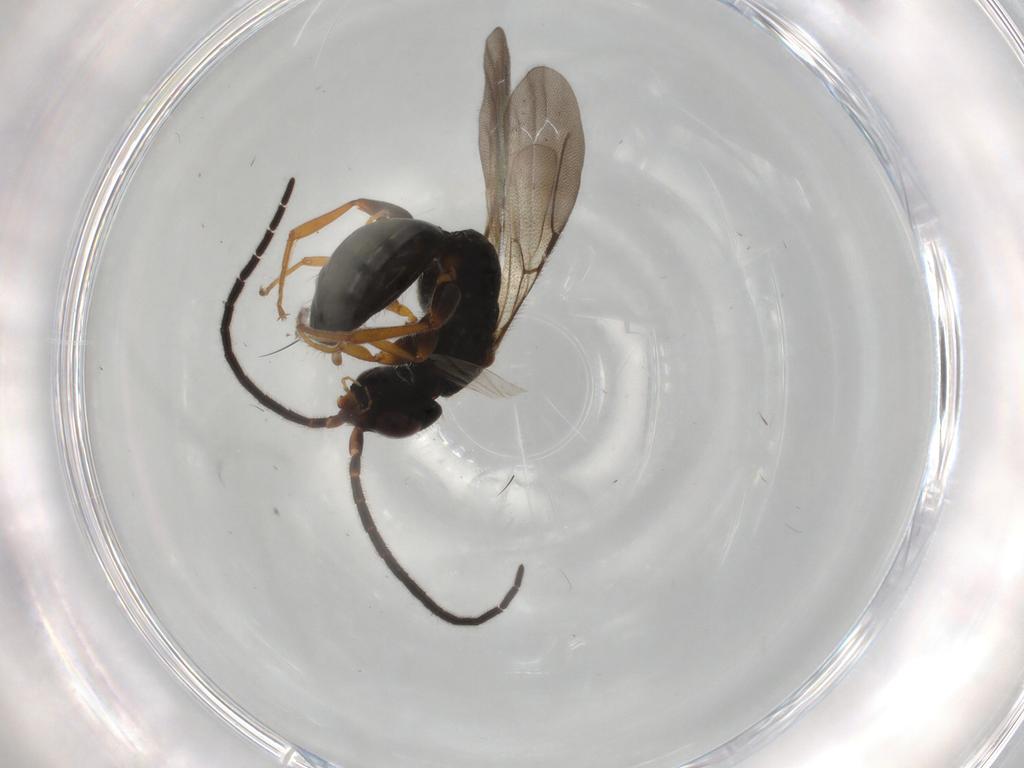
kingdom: Animalia
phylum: Arthropoda
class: Insecta
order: Hymenoptera
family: Bethylidae
